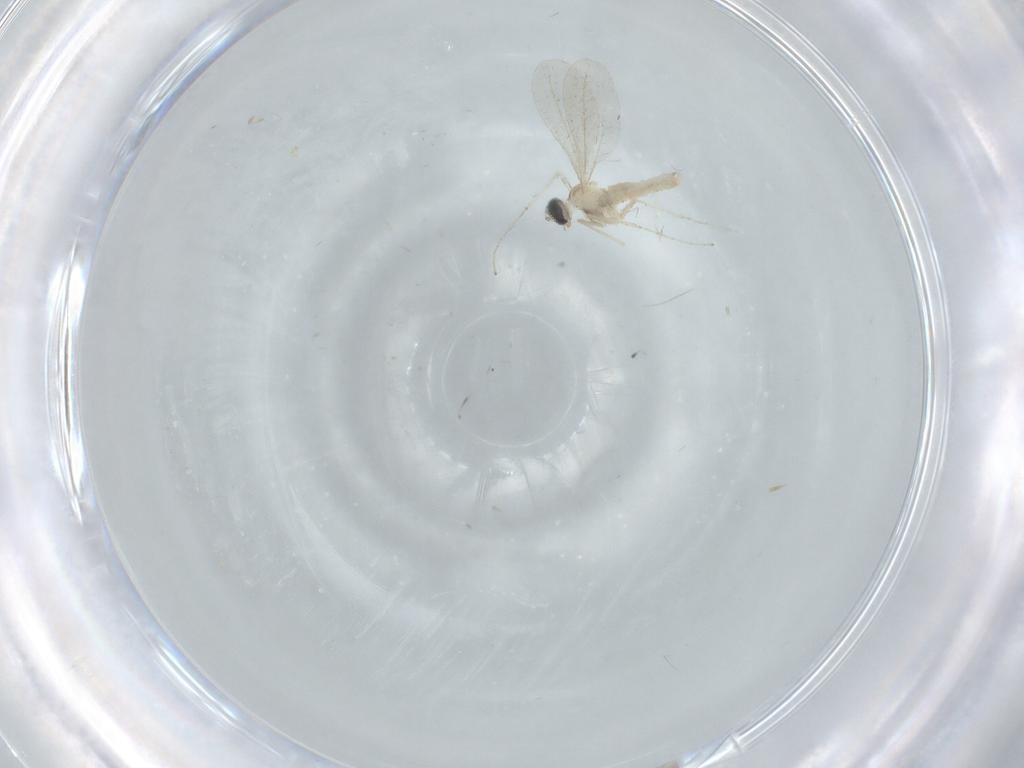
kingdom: Animalia
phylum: Arthropoda
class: Insecta
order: Diptera
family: Cecidomyiidae
